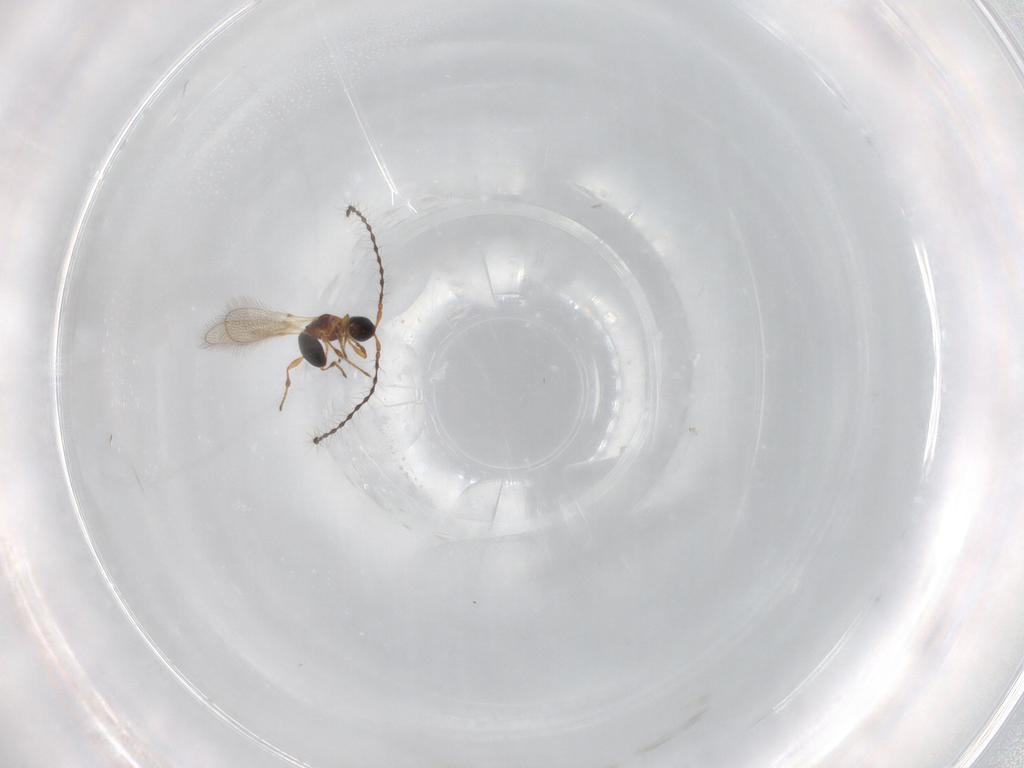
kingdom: Animalia
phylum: Arthropoda
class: Insecta
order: Hymenoptera
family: Diapriidae
